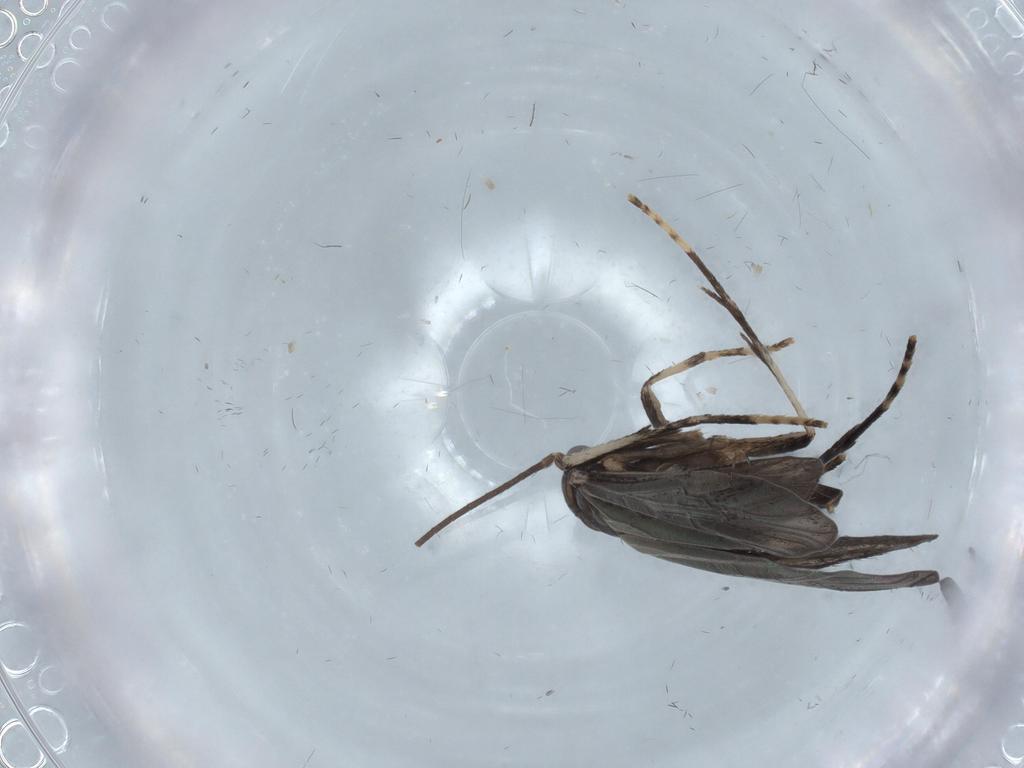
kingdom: Animalia
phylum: Arthropoda
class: Insecta
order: Trichoptera
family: Xiphocentronidae
